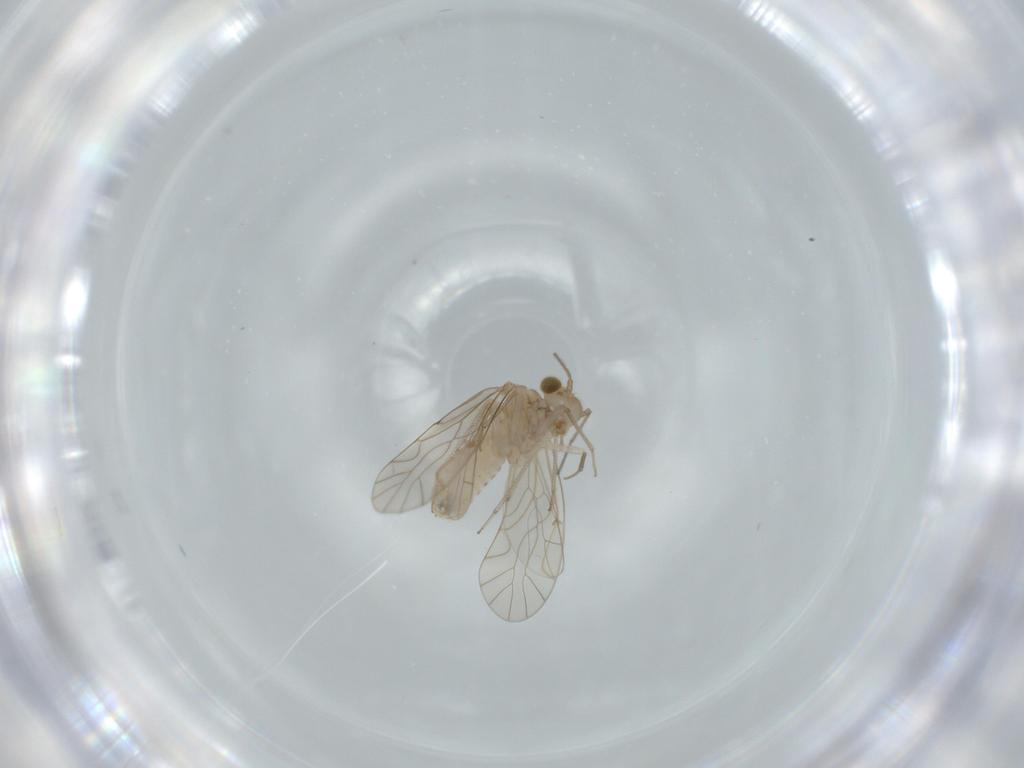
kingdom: Animalia
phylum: Arthropoda
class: Insecta
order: Psocodea
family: Lachesillidae
